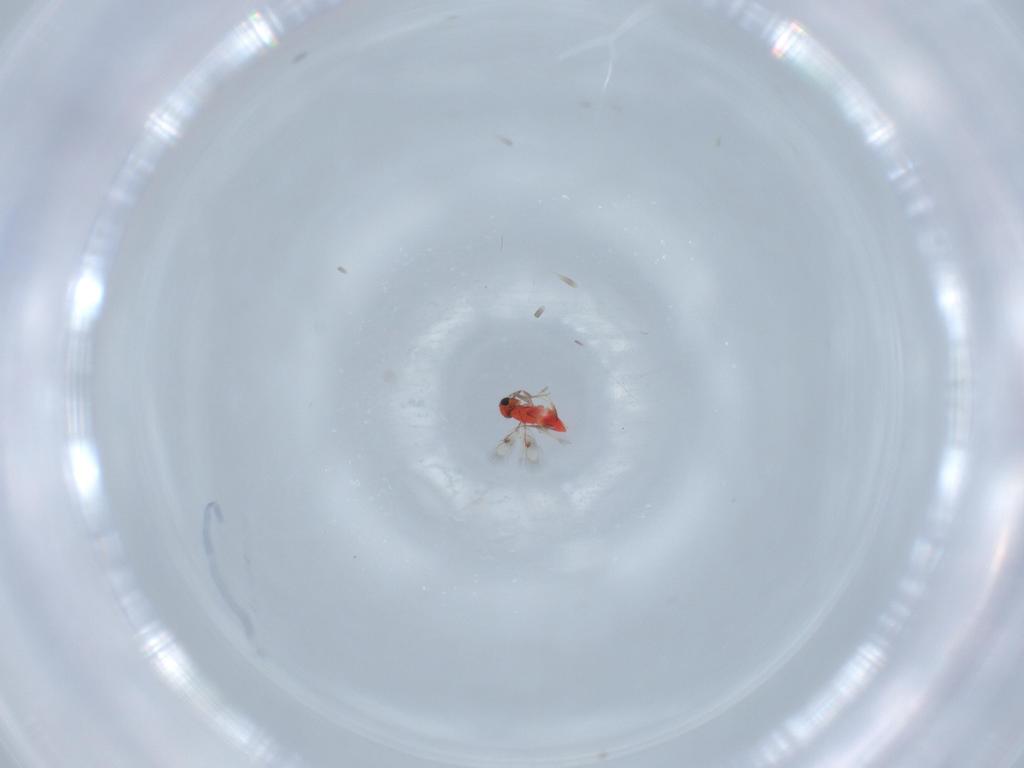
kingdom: Animalia
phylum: Arthropoda
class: Insecta
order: Hymenoptera
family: Trichogrammatidae
